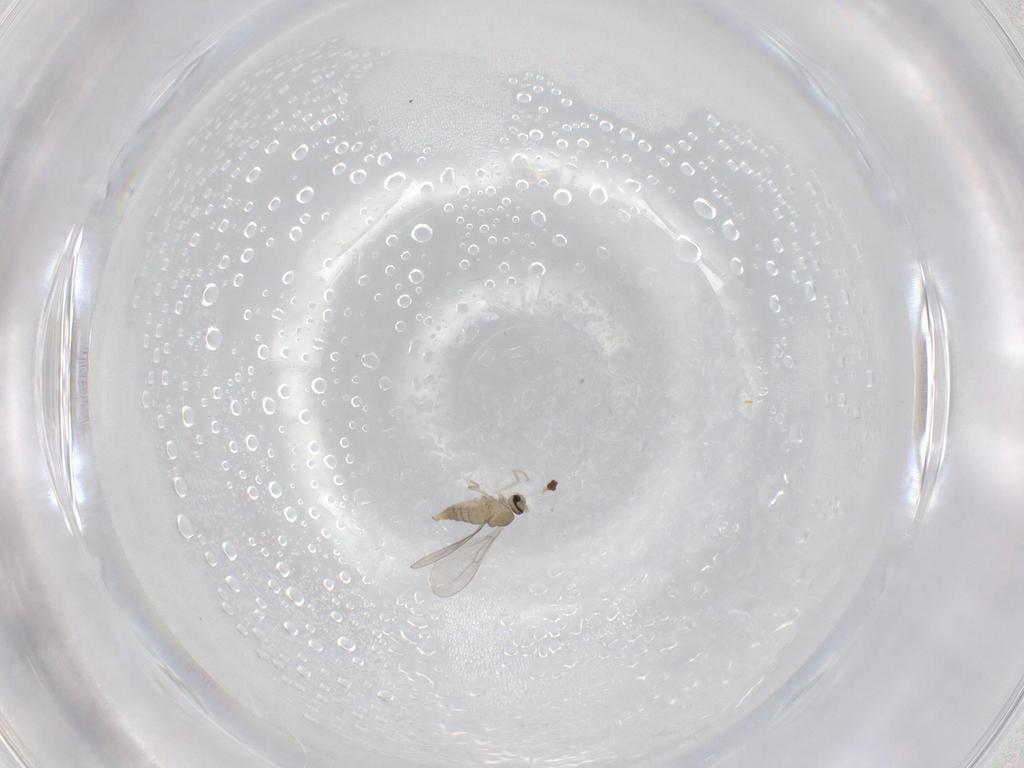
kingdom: Animalia
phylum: Arthropoda
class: Insecta
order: Diptera
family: Cecidomyiidae
